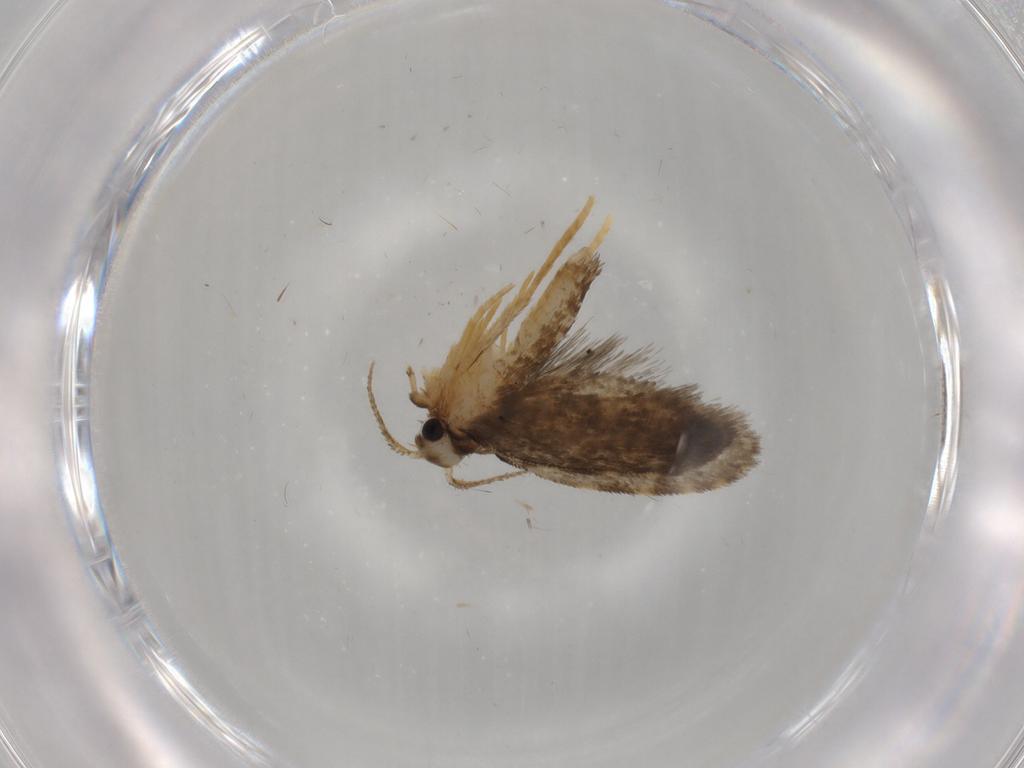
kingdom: Animalia
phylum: Arthropoda
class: Insecta
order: Lepidoptera
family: Psychidae
